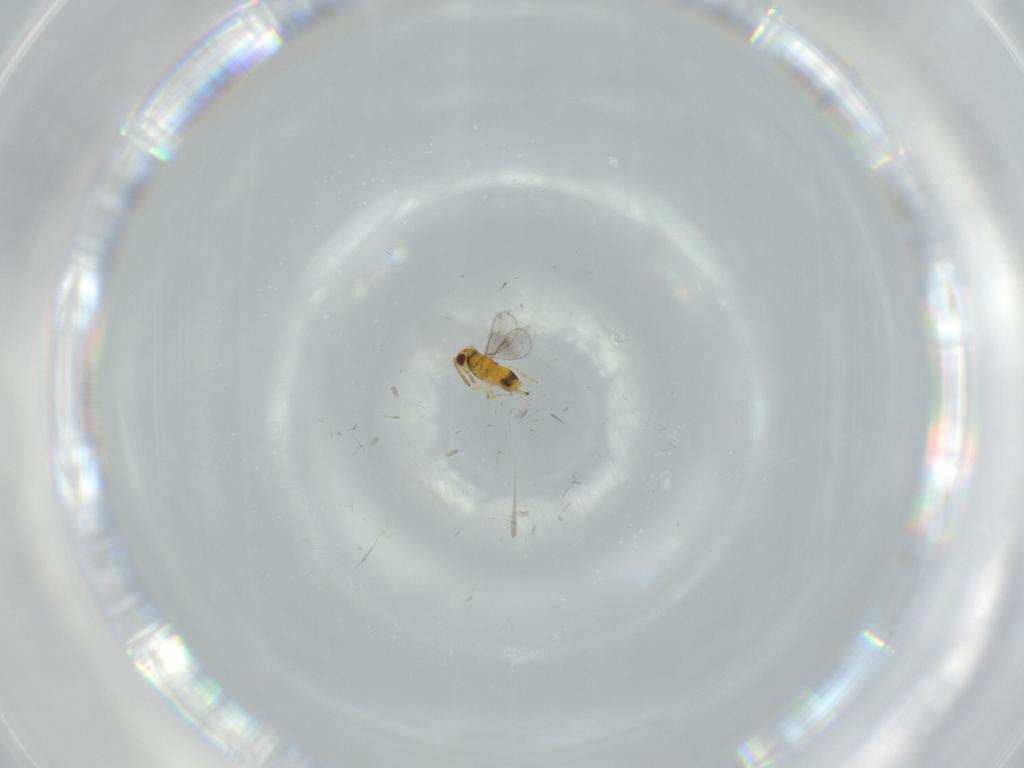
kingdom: Animalia
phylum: Arthropoda
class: Insecta
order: Hymenoptera
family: Aphelinidae
